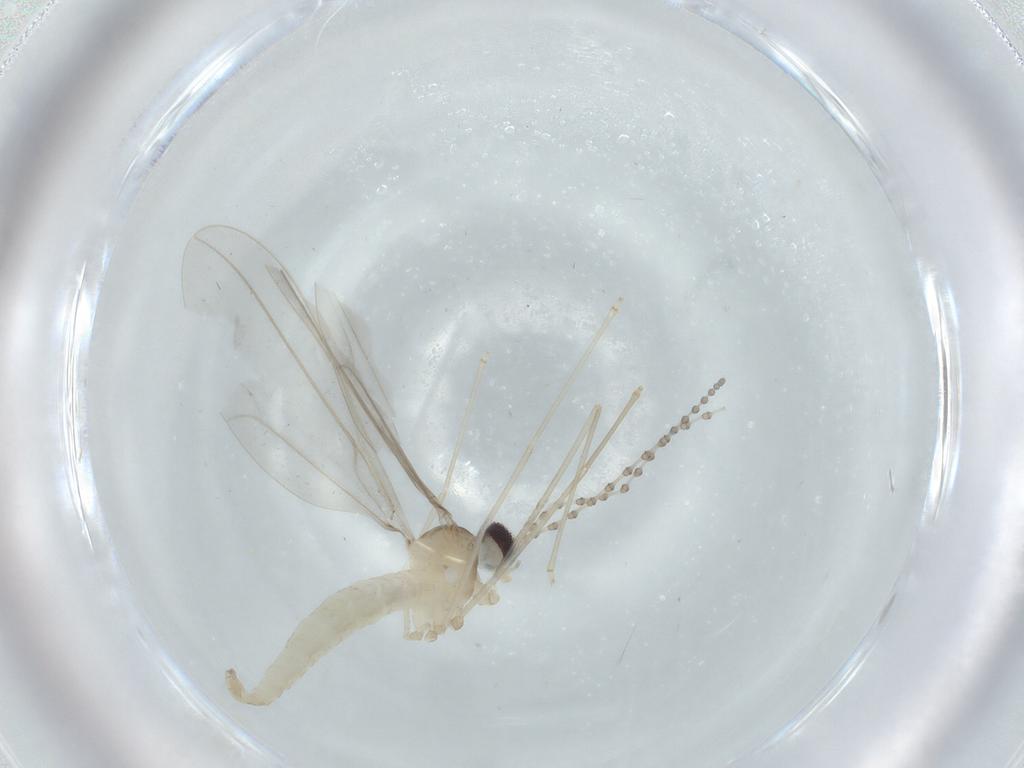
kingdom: Animalia
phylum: Arthropoda
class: Insecta
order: Diptera
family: Cecidomyiidae
